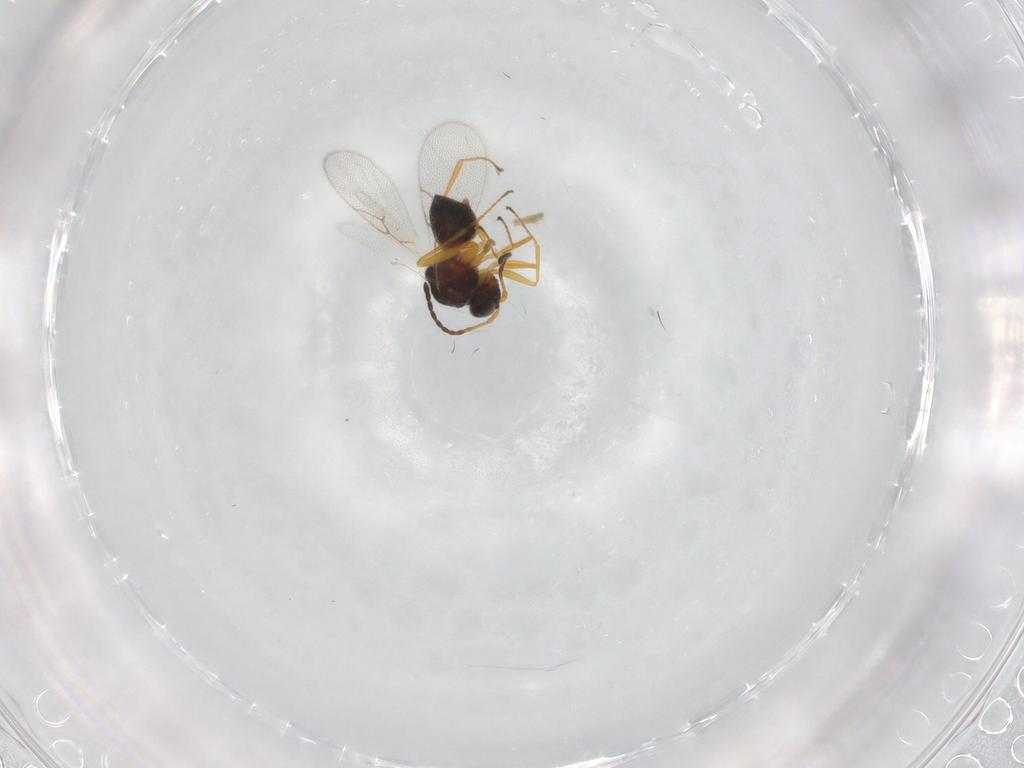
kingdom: Animalia
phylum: Arthropoda
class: Insecta
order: Hymenoptera
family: Figitidae
